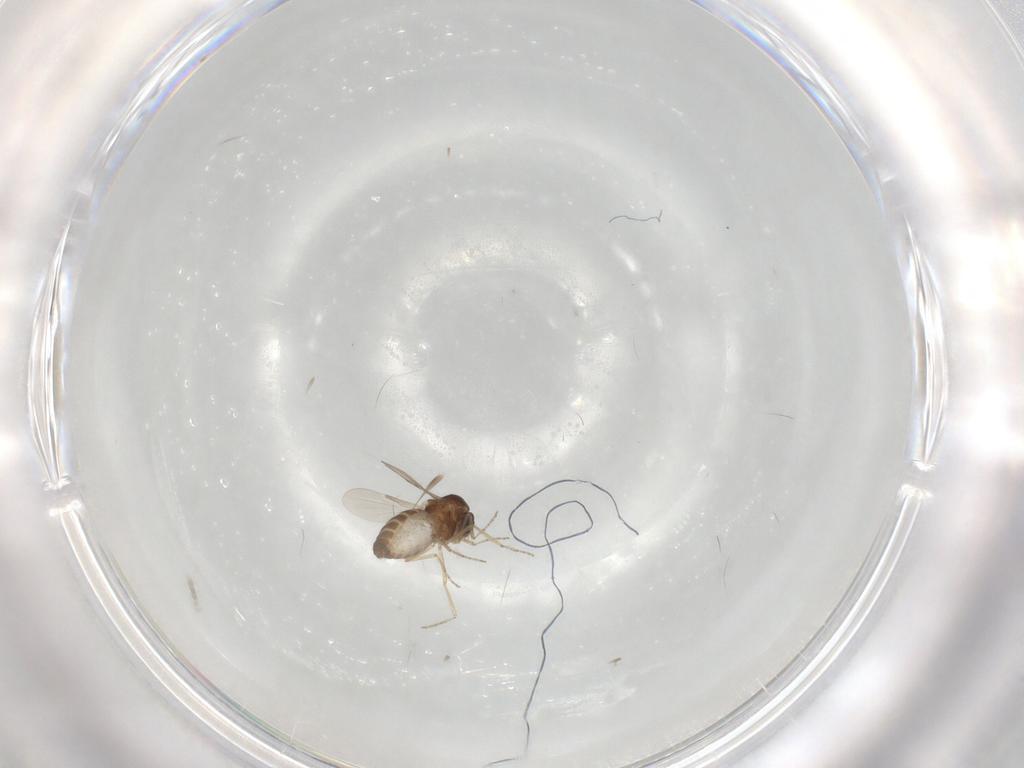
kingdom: Animalia
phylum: Arthropoda
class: Insecta
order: Diptera
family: Ceratopogonidae
